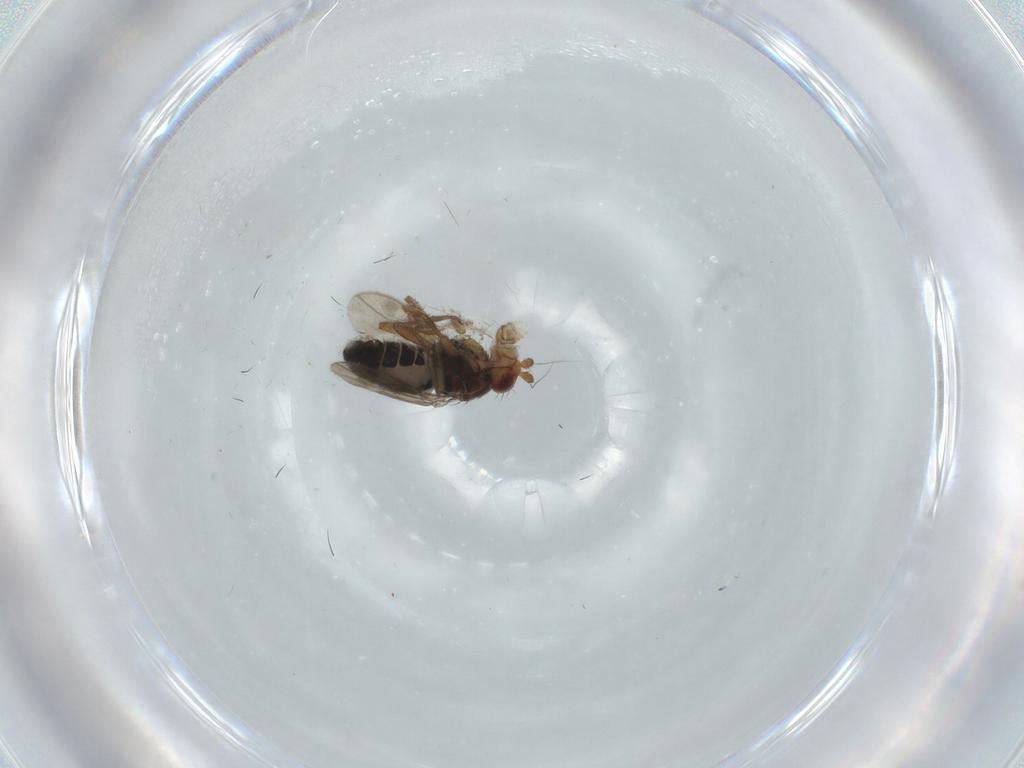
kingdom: Animalia
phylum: Arthropoda
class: Insecta
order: Diptera
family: Sphaeroceridae
